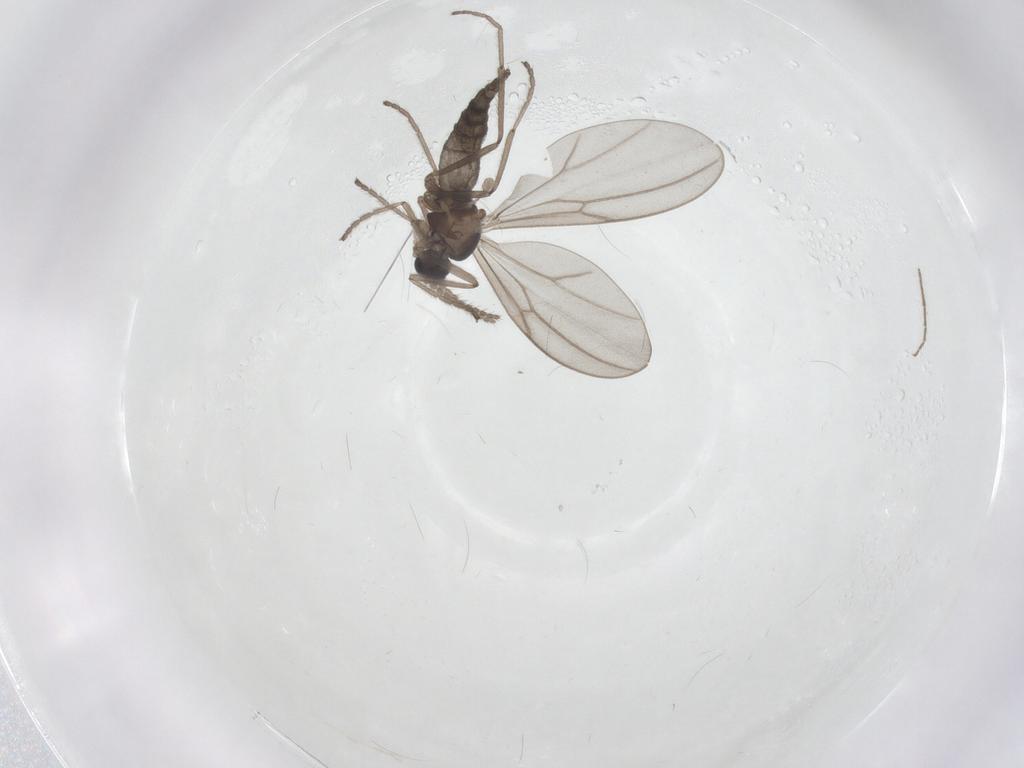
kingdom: Animalia
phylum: Arthropoda
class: Insecta
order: Diptera
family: Cecidomyiidae
